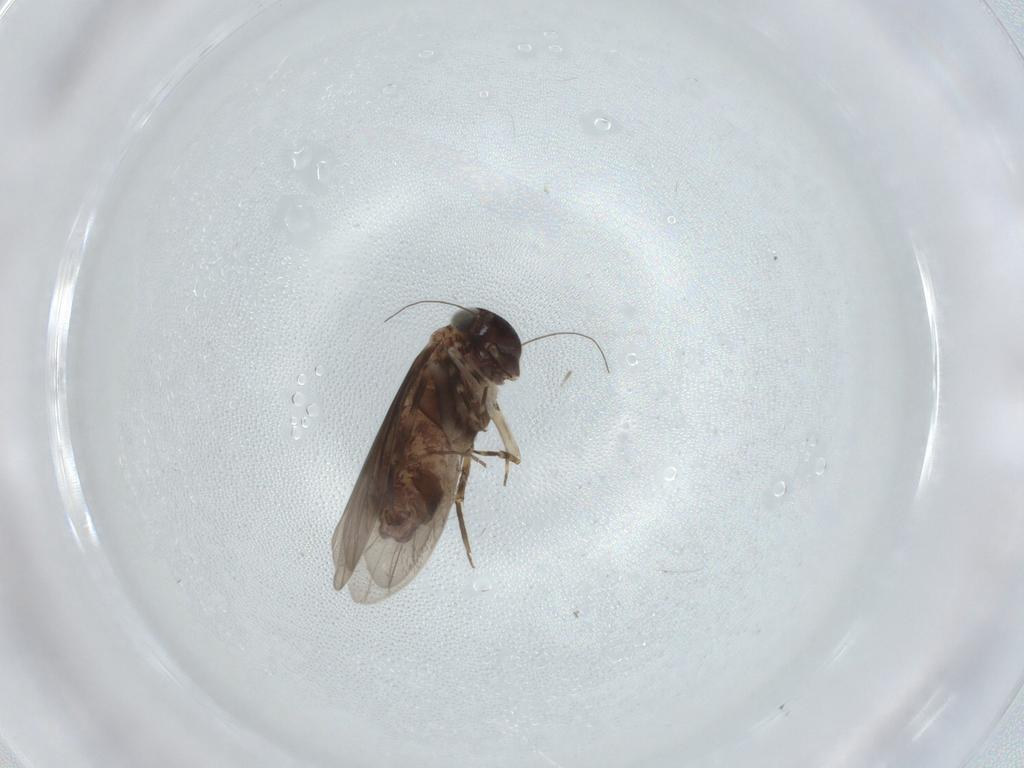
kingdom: Animalia
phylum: Arthropoda
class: Insecta
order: Psocodea
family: Amphientomidae
